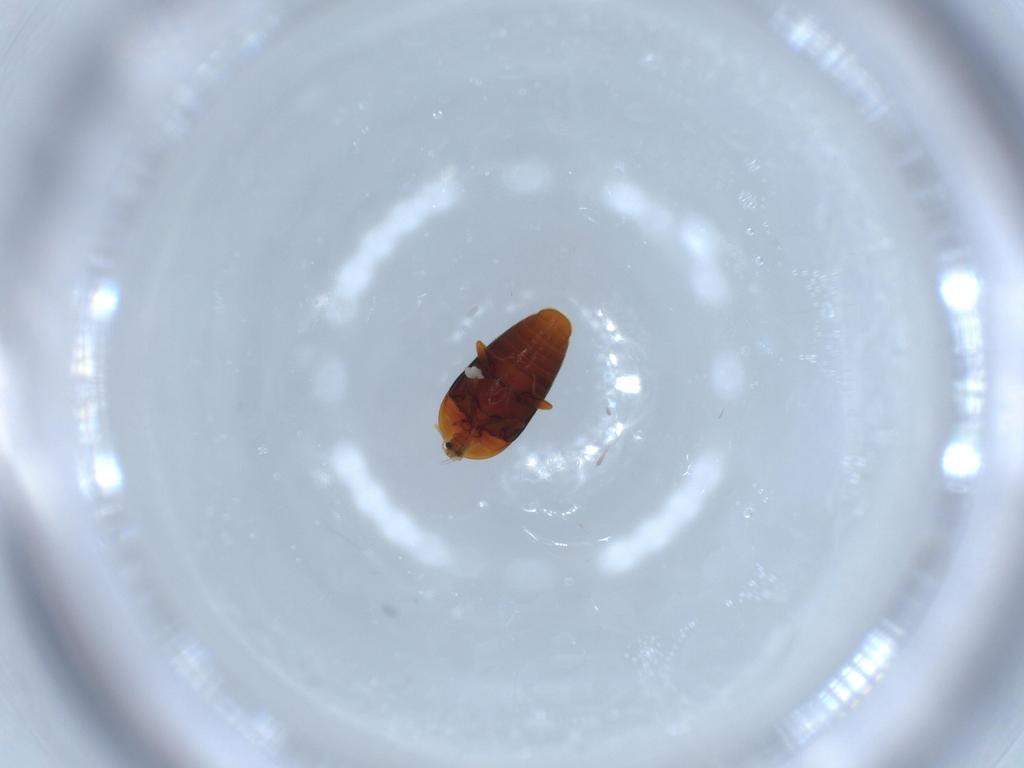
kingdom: Animalia
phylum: Arthropoda
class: Insecta
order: Coleoptera
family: Corylophidae
